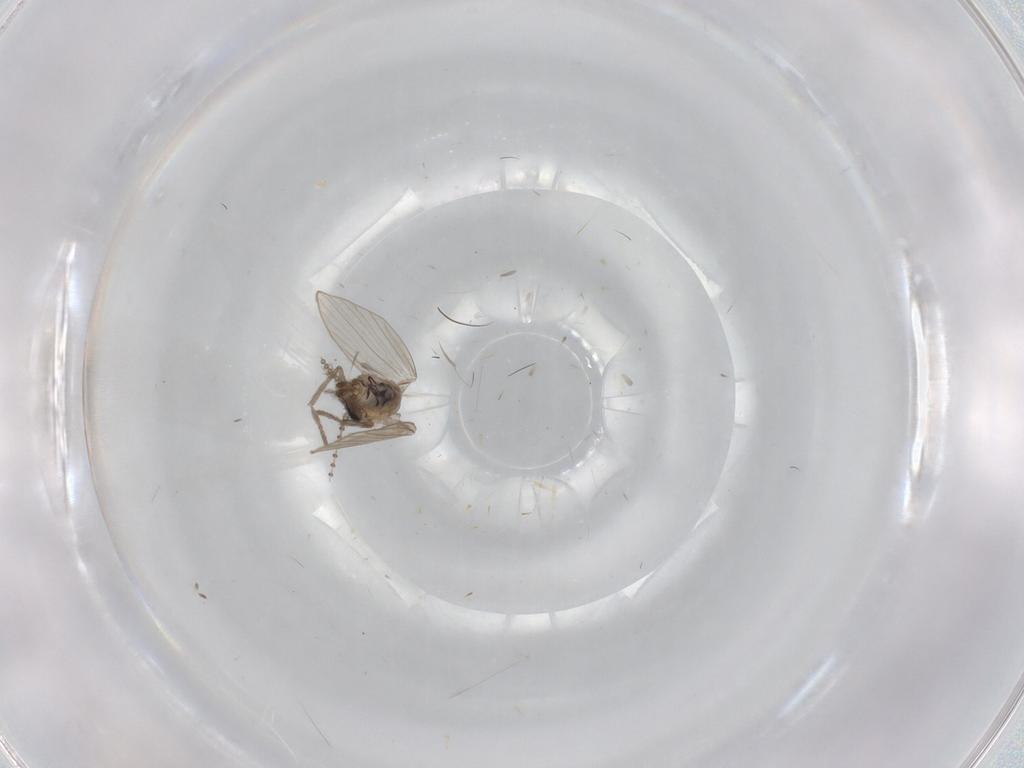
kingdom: Animalia
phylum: Arthropoda
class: Insecta
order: Diptera
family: Psychodidae
